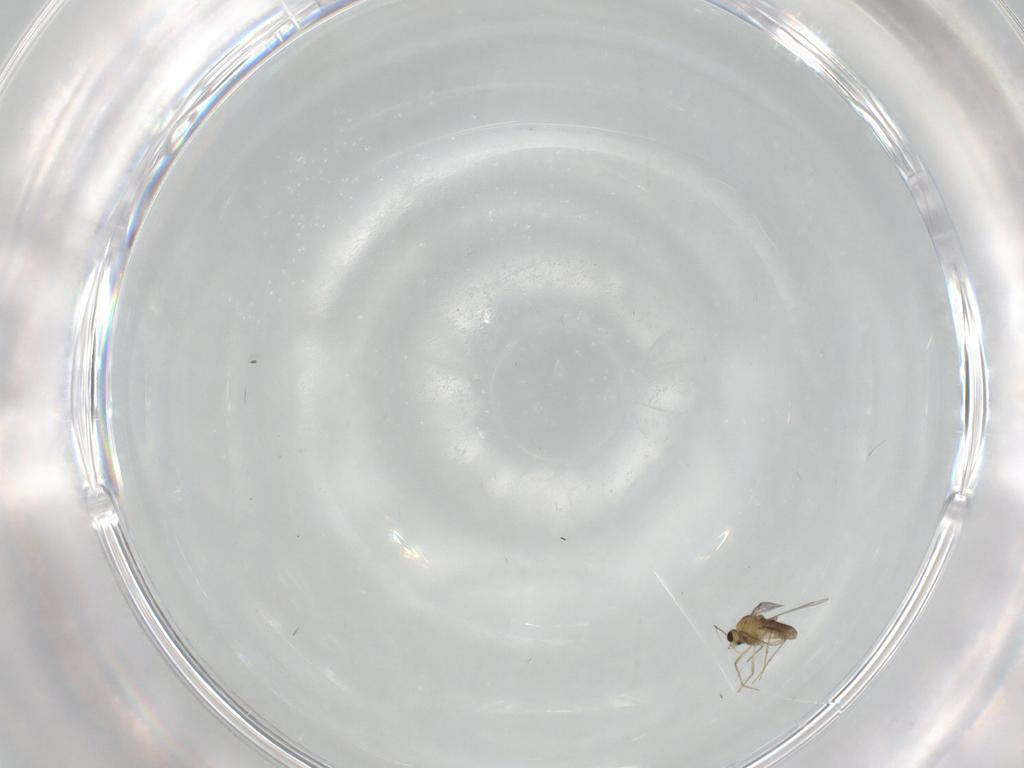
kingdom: Animalia
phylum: Arthropoda
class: Insecta
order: Diptera
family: Chironomidae
